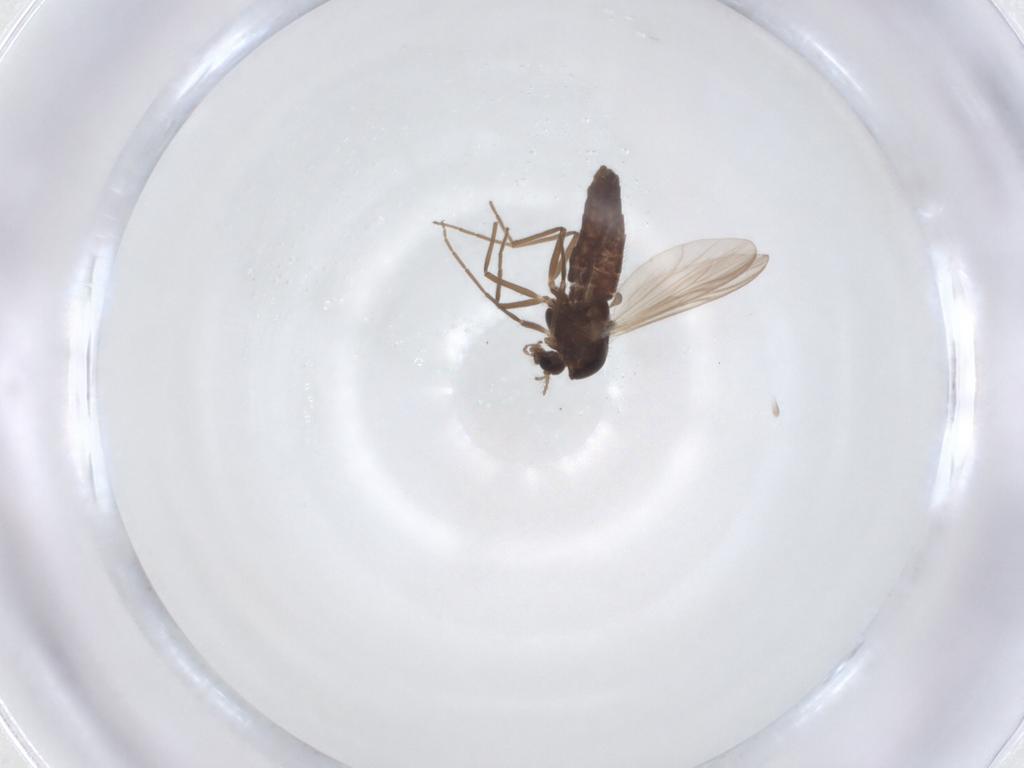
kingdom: Animalia
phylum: Arthropoda
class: Insecta
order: Diptera
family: Chironomidae
